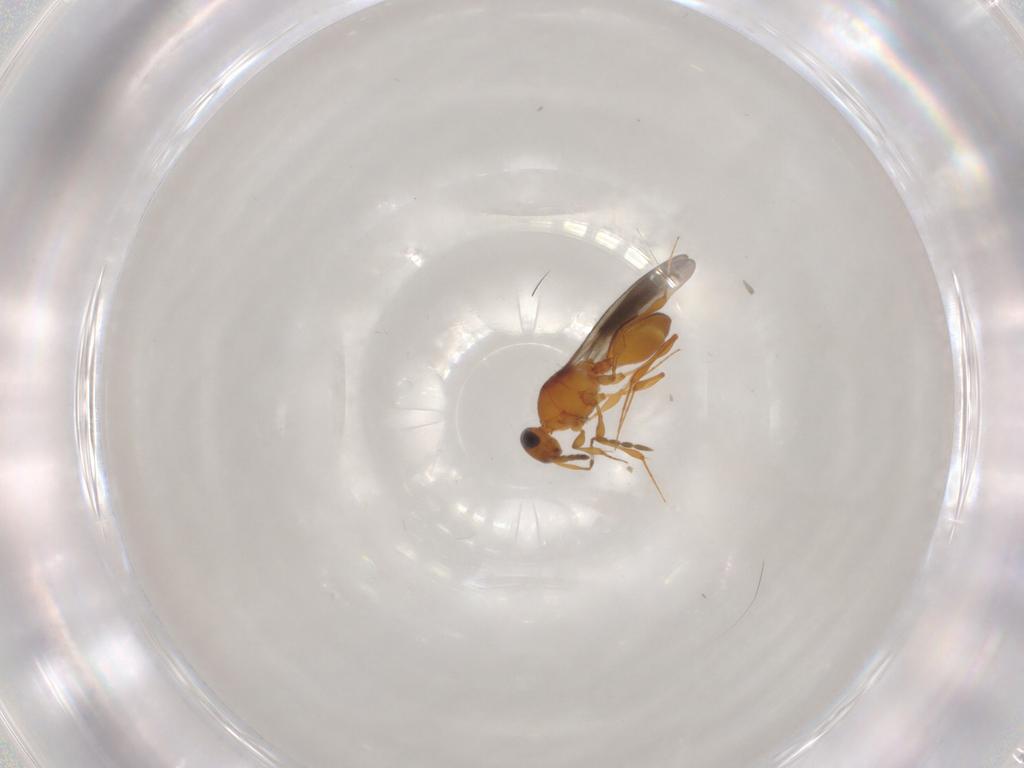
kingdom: Animalia
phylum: Arthropoda
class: Insecta
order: Hymenoptera
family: Platygastridae
